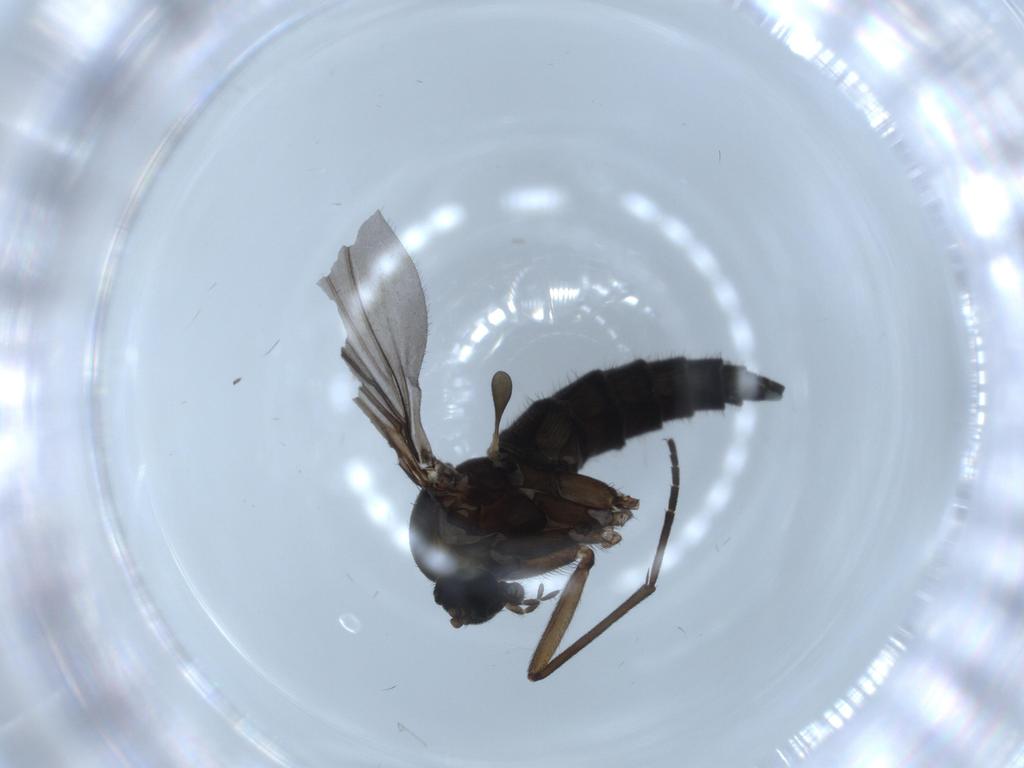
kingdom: Animalia
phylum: Arthropoda
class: Insecta
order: Diptera
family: Sciaridae
